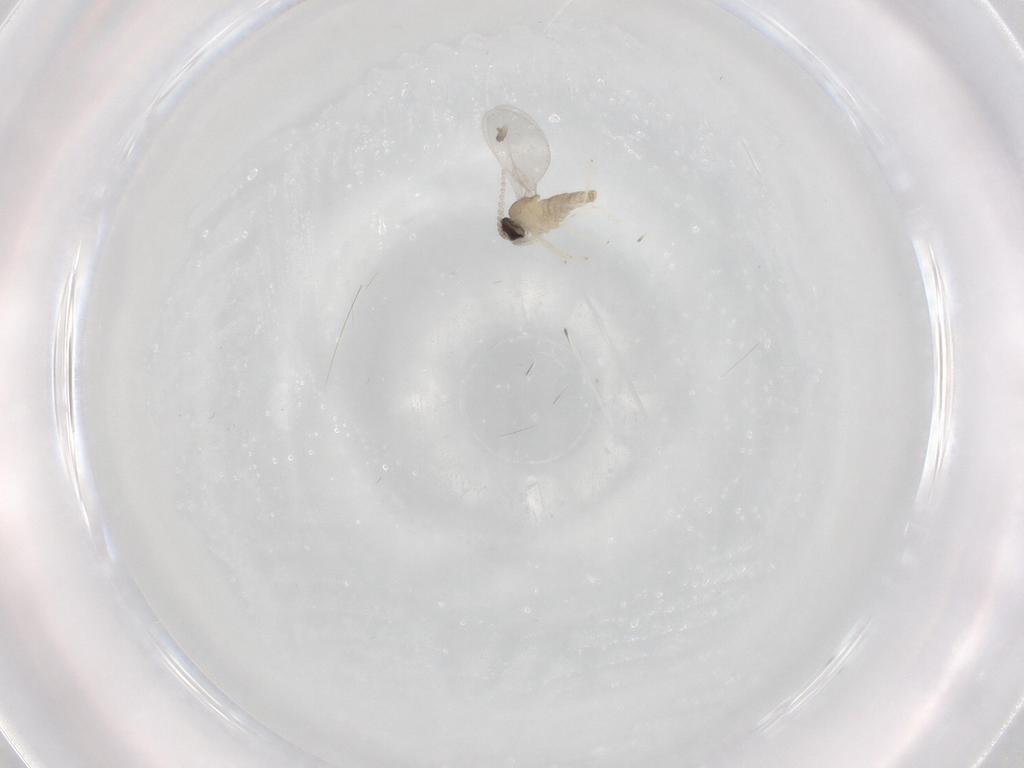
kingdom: Animalia
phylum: Arthropoda
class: Insecta
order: Diptera
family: Cecidomyiidae
